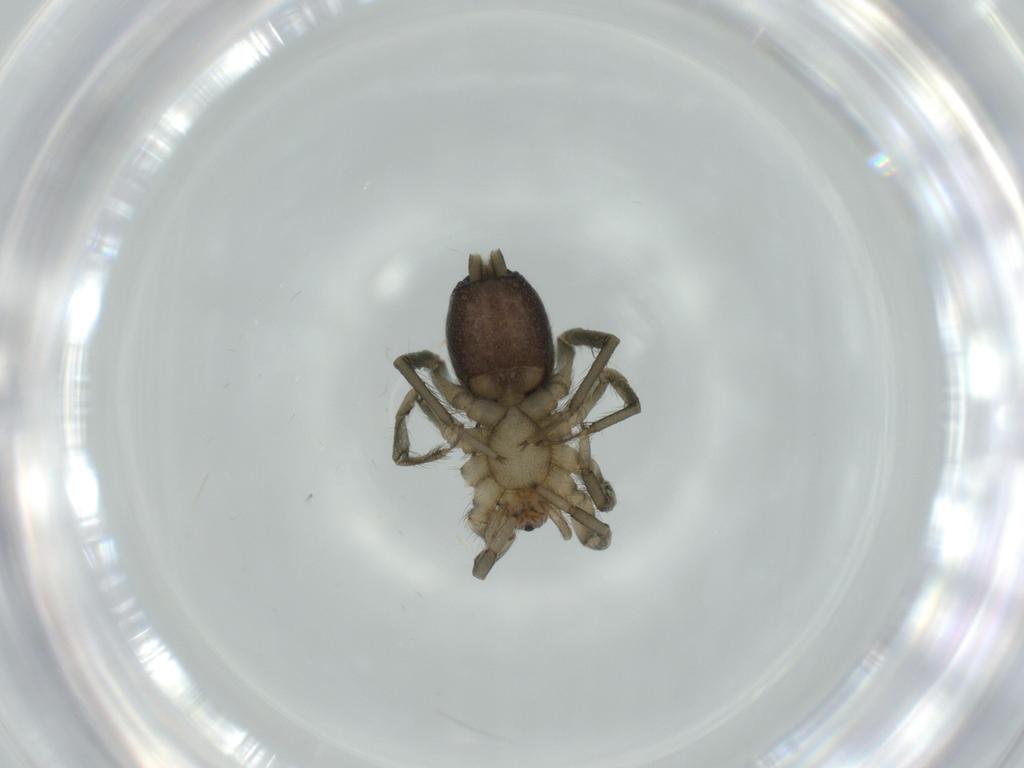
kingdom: Animalia
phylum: Arthropoda
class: Arachnida
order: Araneae
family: Gnaphosidae
